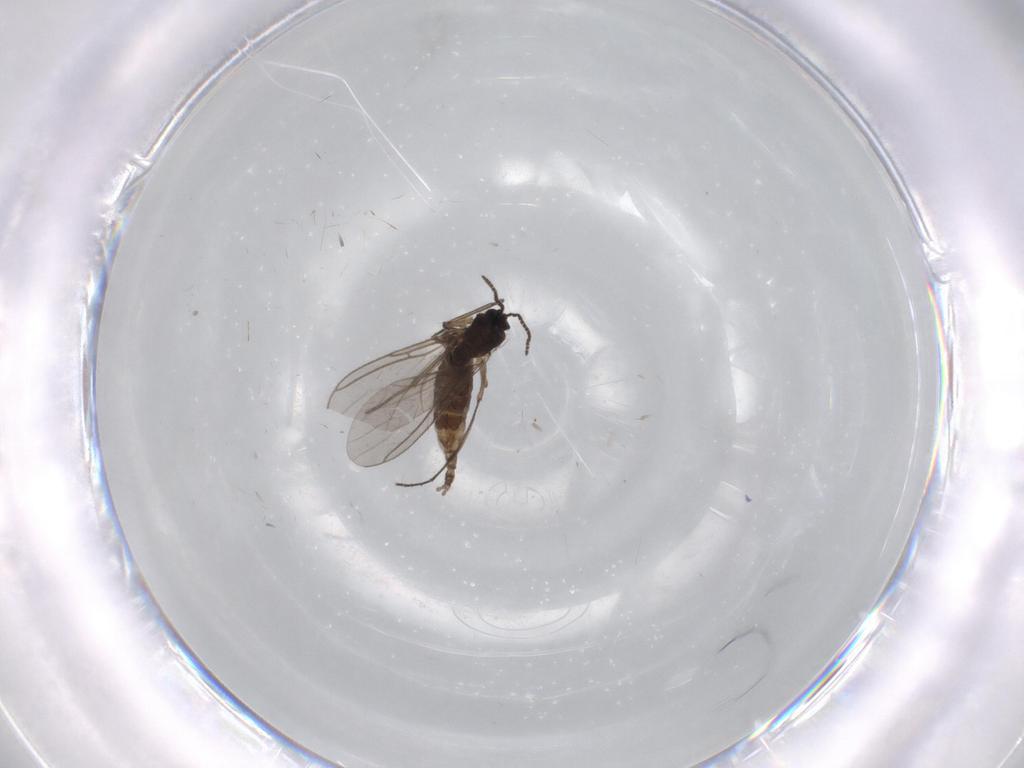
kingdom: Animalia
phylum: Arthropoda
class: Insecta
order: Diptera
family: Sciaridae
